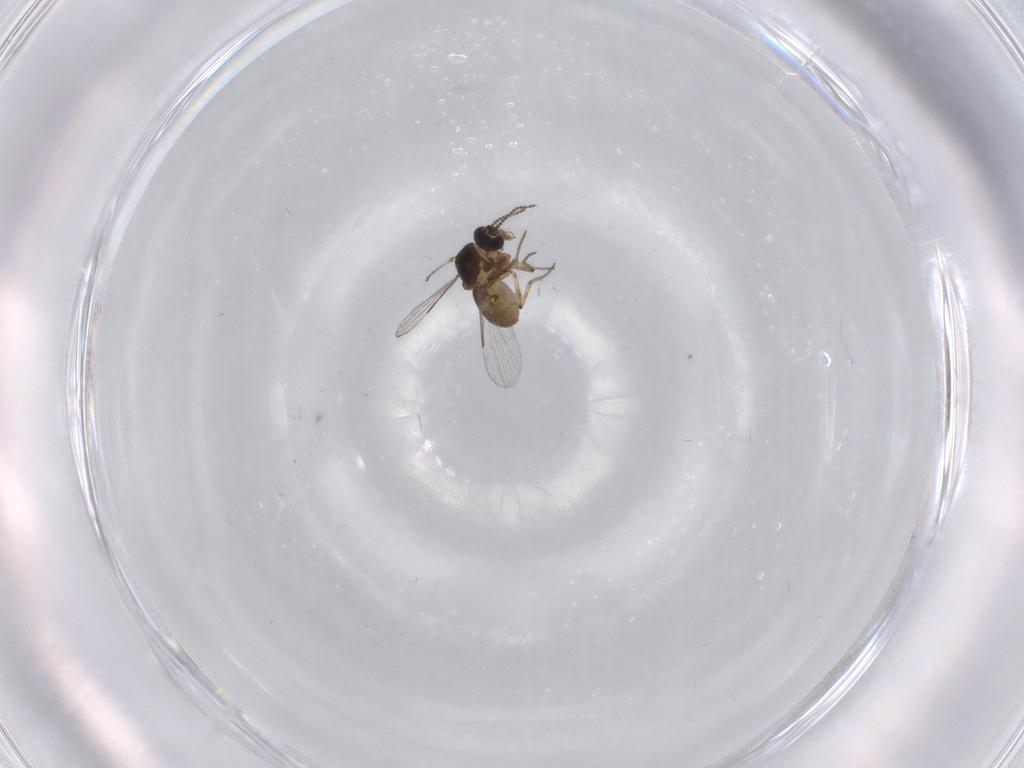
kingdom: Animalia
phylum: Arthropoda
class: Insecta
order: Diptera
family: Ceratopogonidae
